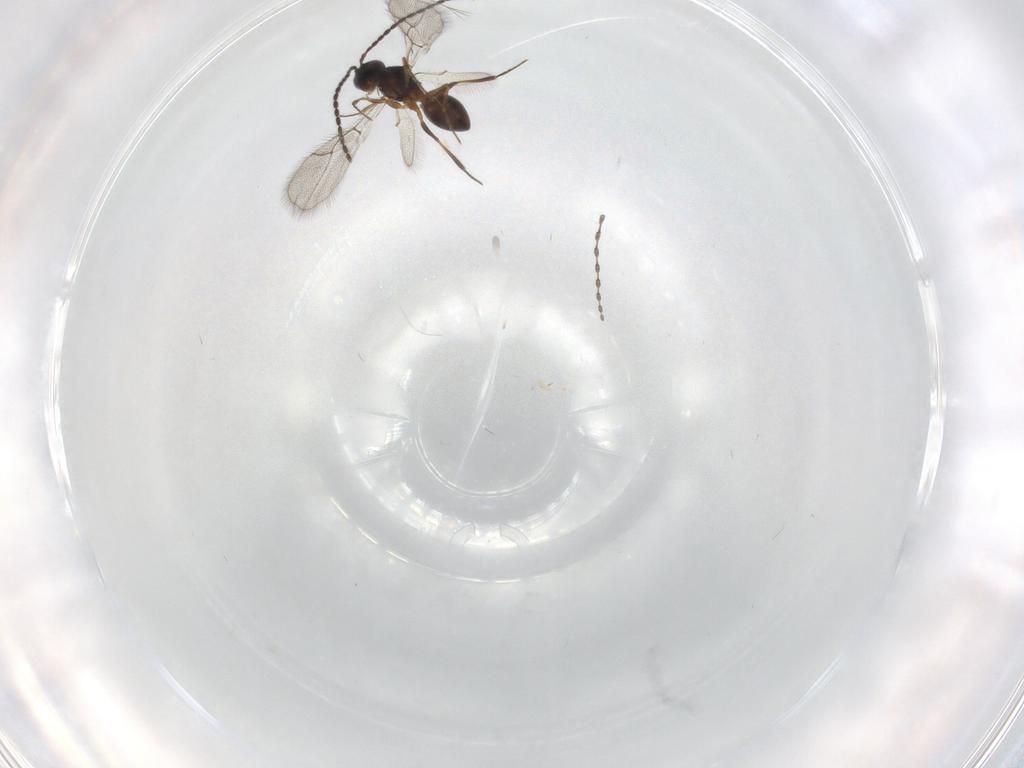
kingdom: Animalia
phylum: Arthropoda
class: Insecta
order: Hymenoptera
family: Figitidae
